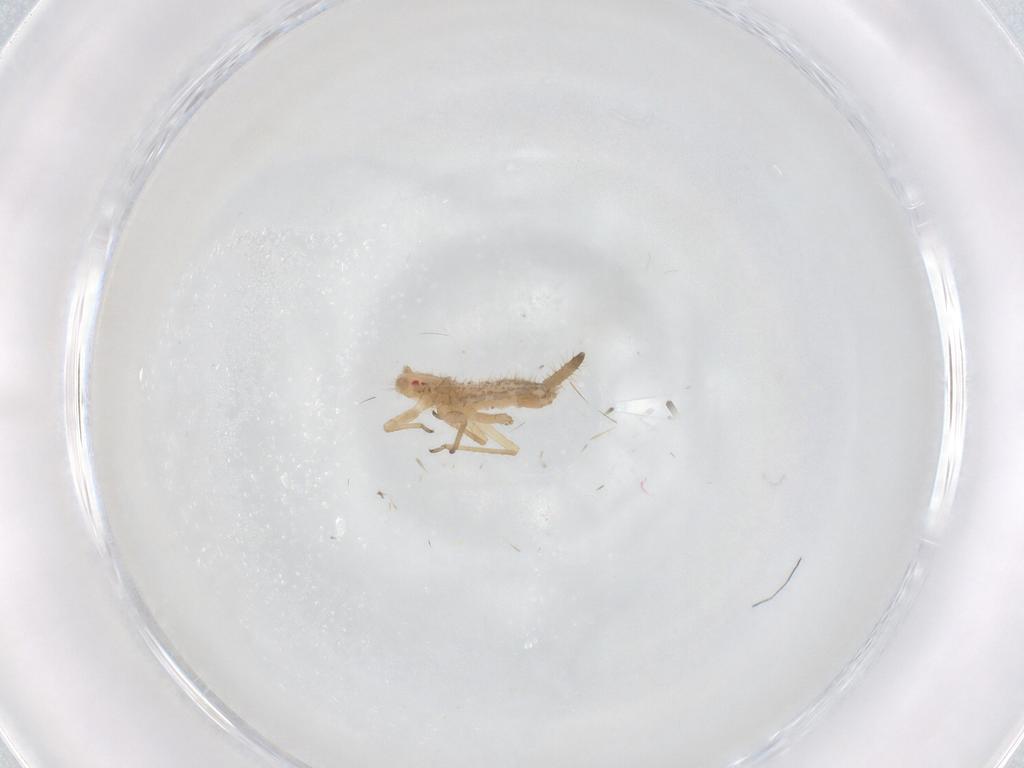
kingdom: Animalia
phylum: Arthropoda
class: Insecta
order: Hemiptera
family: Aphididae
